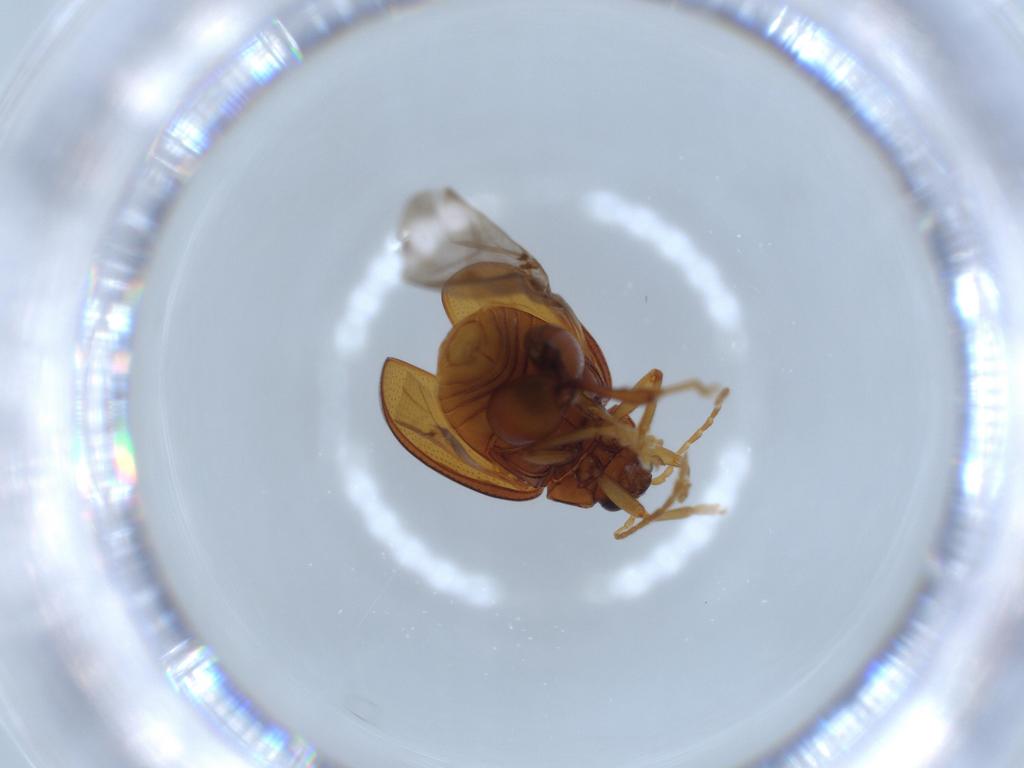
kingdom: Animalia
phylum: Arthropoda
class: Insecta
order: Coleoptera
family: Chrysomelidae
